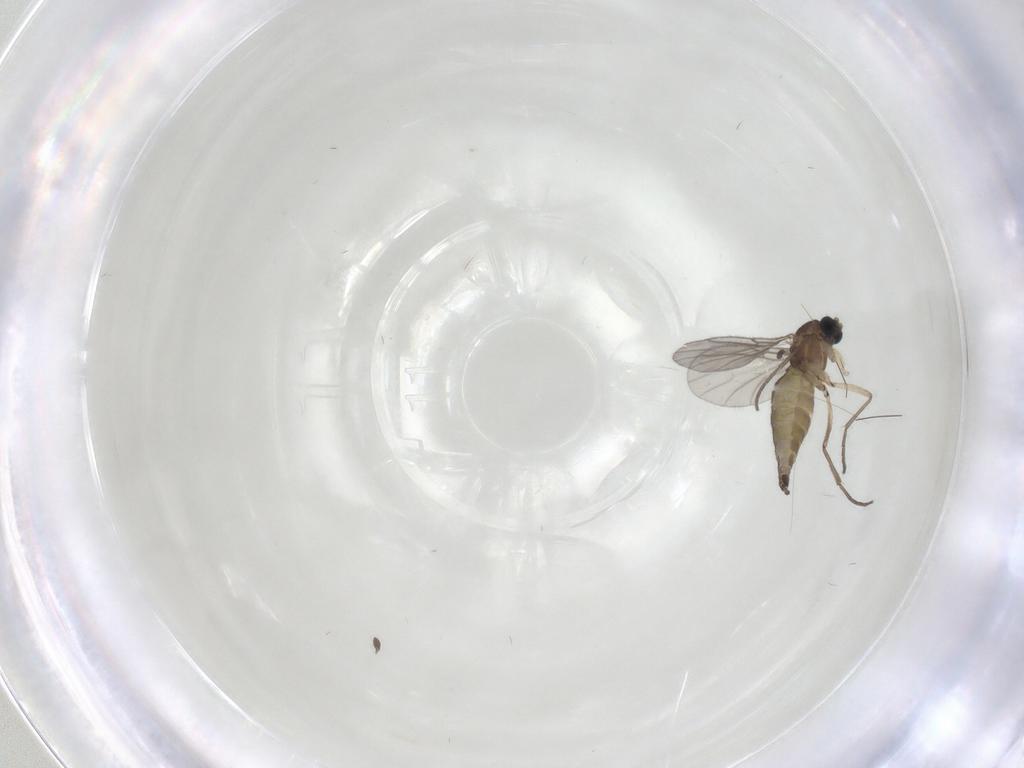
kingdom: Animalia
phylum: Arthropoda
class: Insecta
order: Diptera
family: Sciaridae
